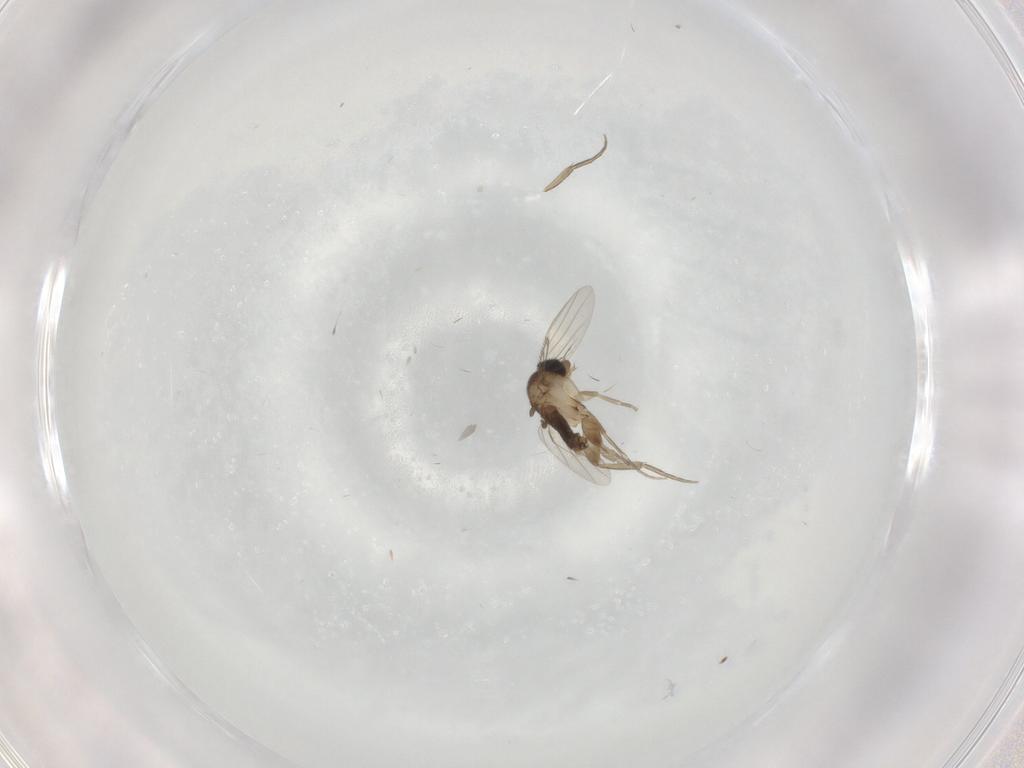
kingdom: Animalia
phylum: Arthropoda
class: Insecta
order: Diptera
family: Phoridae
